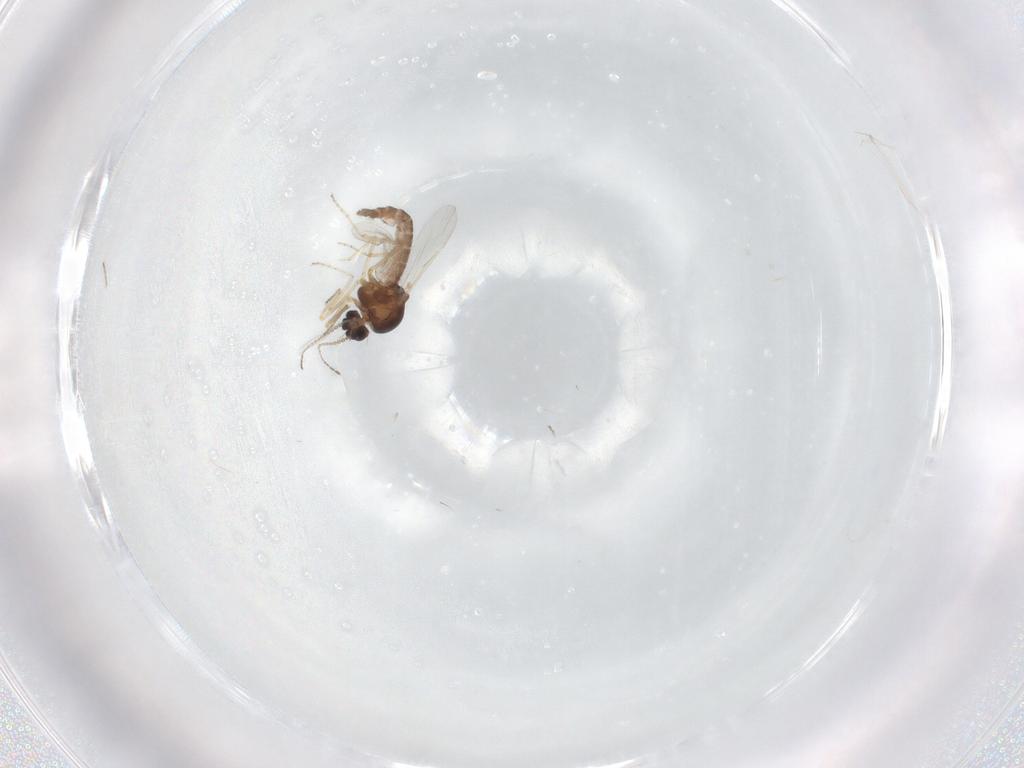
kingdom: Animalia
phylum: Arthropoda
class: Insecta
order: Diptera
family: Ceratopogonidae
